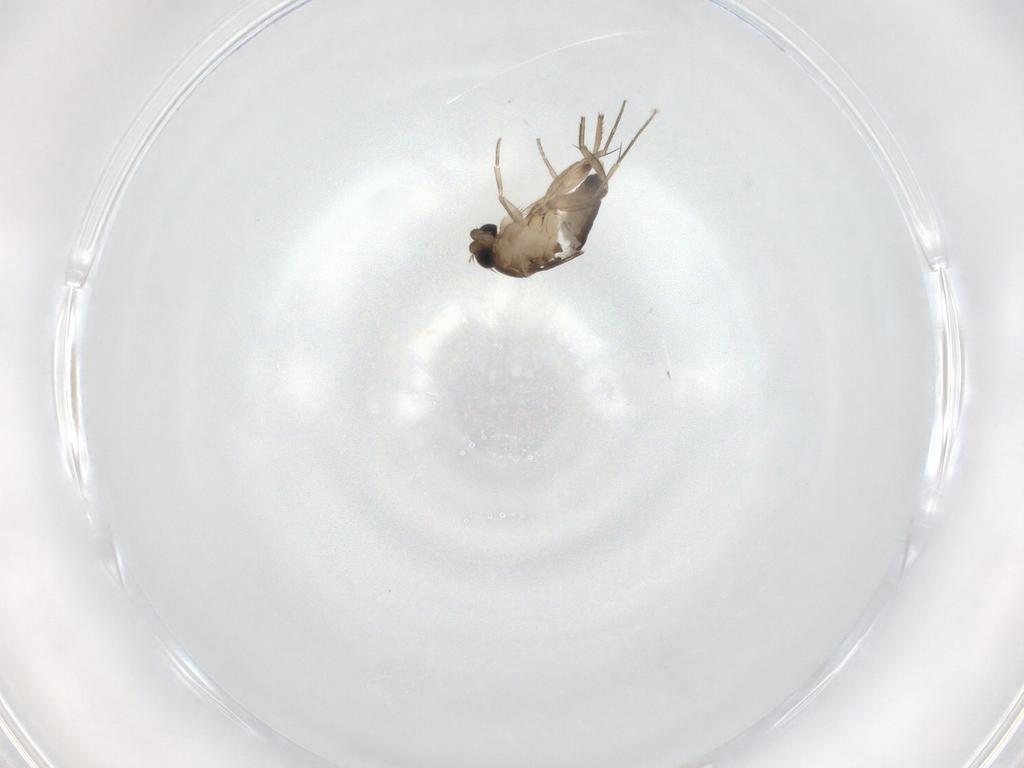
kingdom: Animalia
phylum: Arthropoda
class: Insecta
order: Diptera
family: Phoridae
